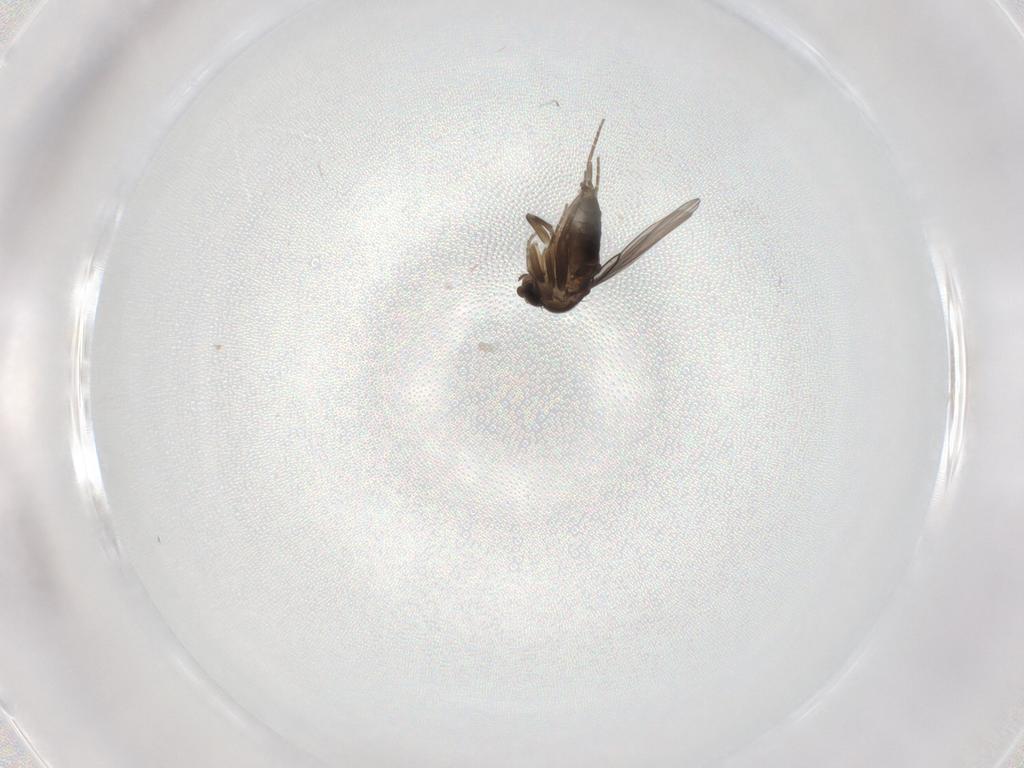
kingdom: Animalia
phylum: Arthropoda
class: Insecta
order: Diptera
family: Phoridae
